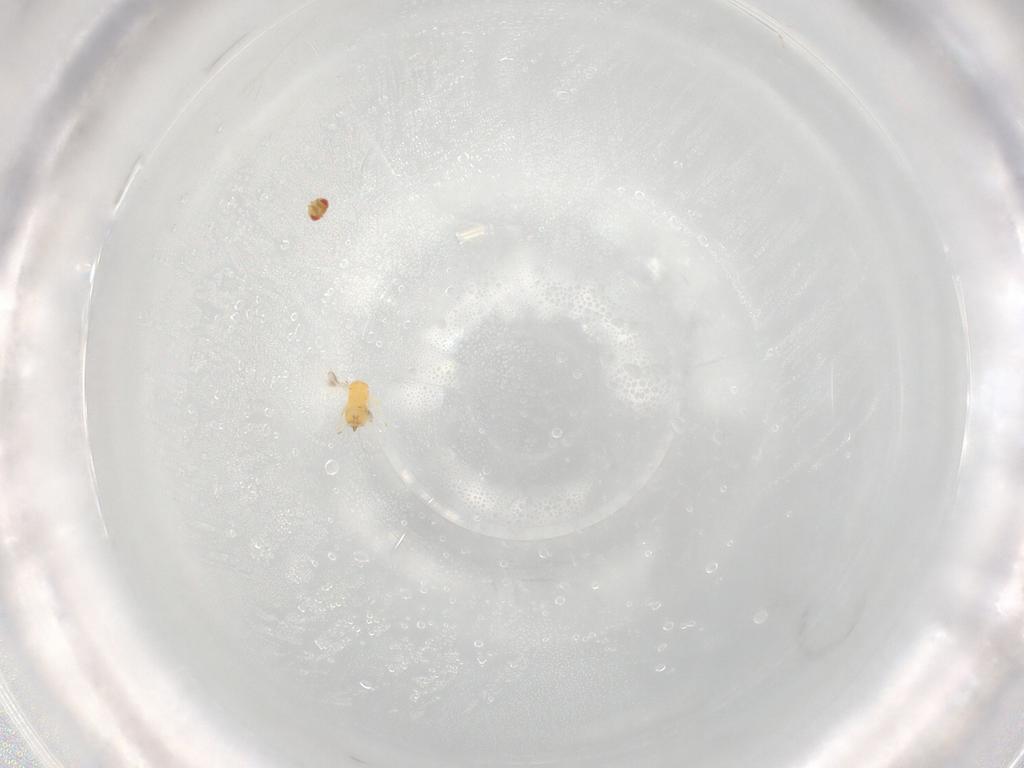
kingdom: Animalia
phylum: Arthropoda
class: Insecta
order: Hymenoptera
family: Trichogrammatidae
